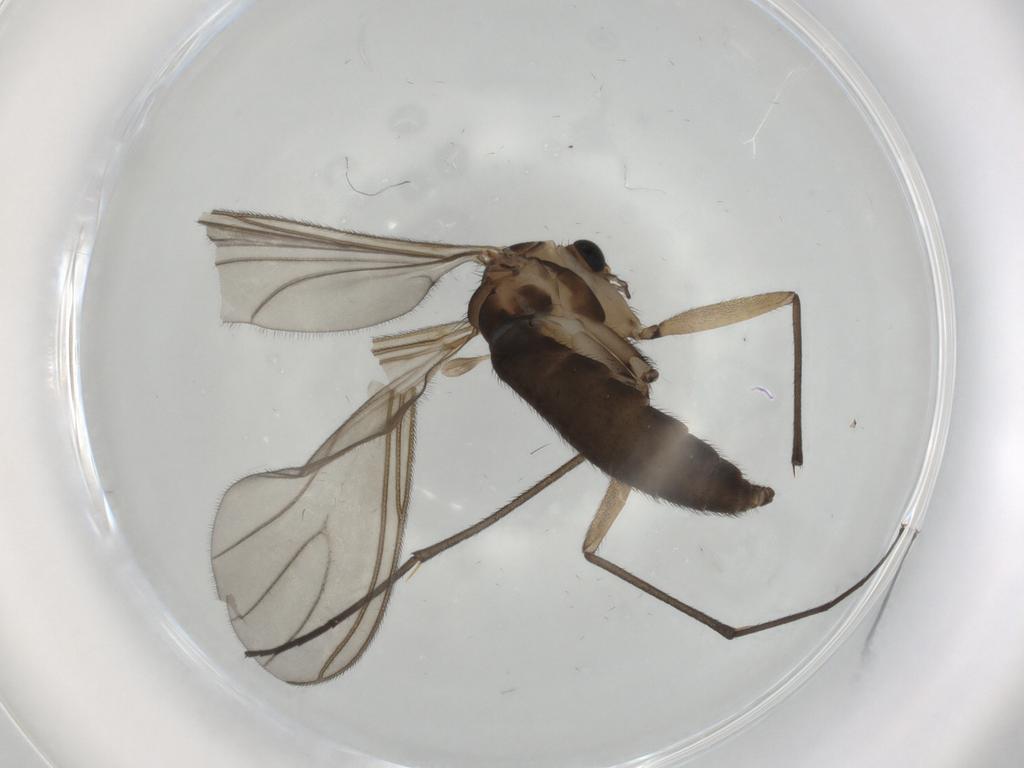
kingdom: Animalia
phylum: Arthropoda
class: Insecta
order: Diptera
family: Sciaridae
